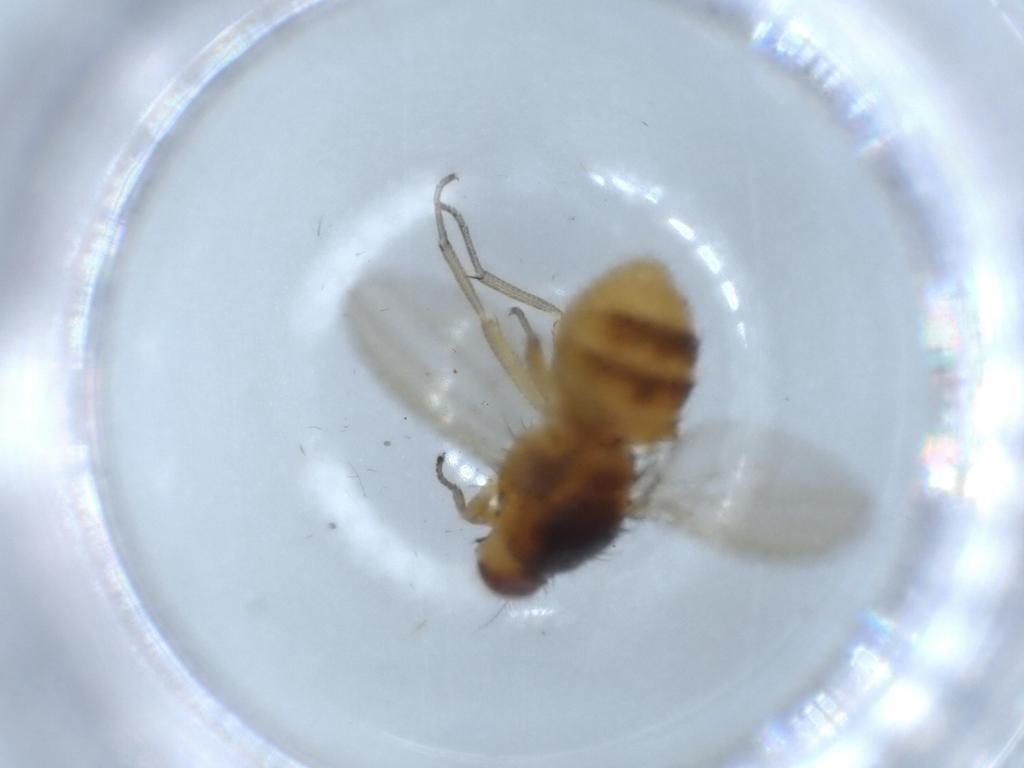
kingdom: Animalia
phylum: Arthropoda
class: Insecta
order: Diptera
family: Lauxaniidae
